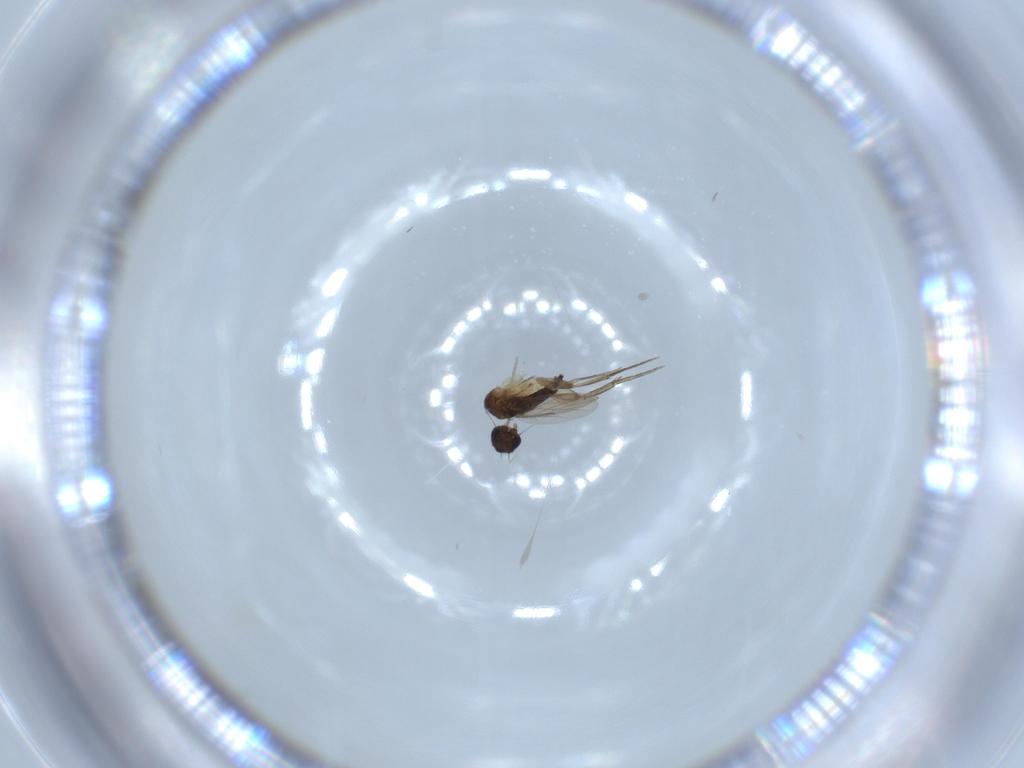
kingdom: Animalia
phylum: Arthropoda
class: Insecta
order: Diptera
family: Phoridae
